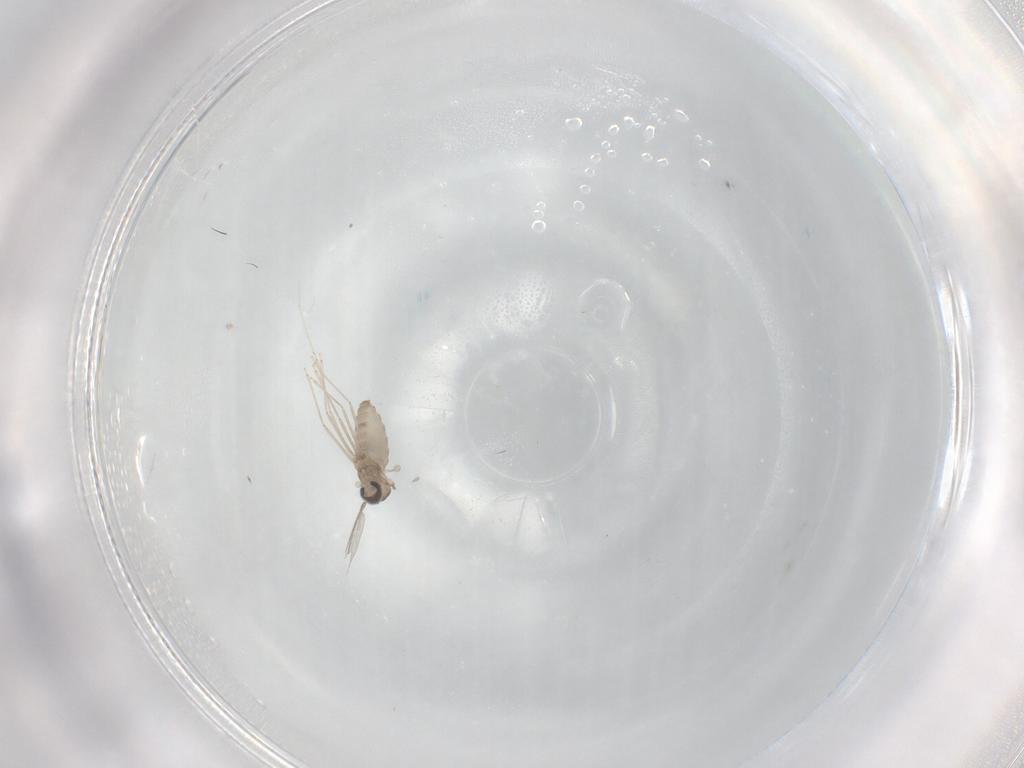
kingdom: Animalia
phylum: Arthropoda
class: Insecta
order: Diptera
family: Cecidomyiidae
